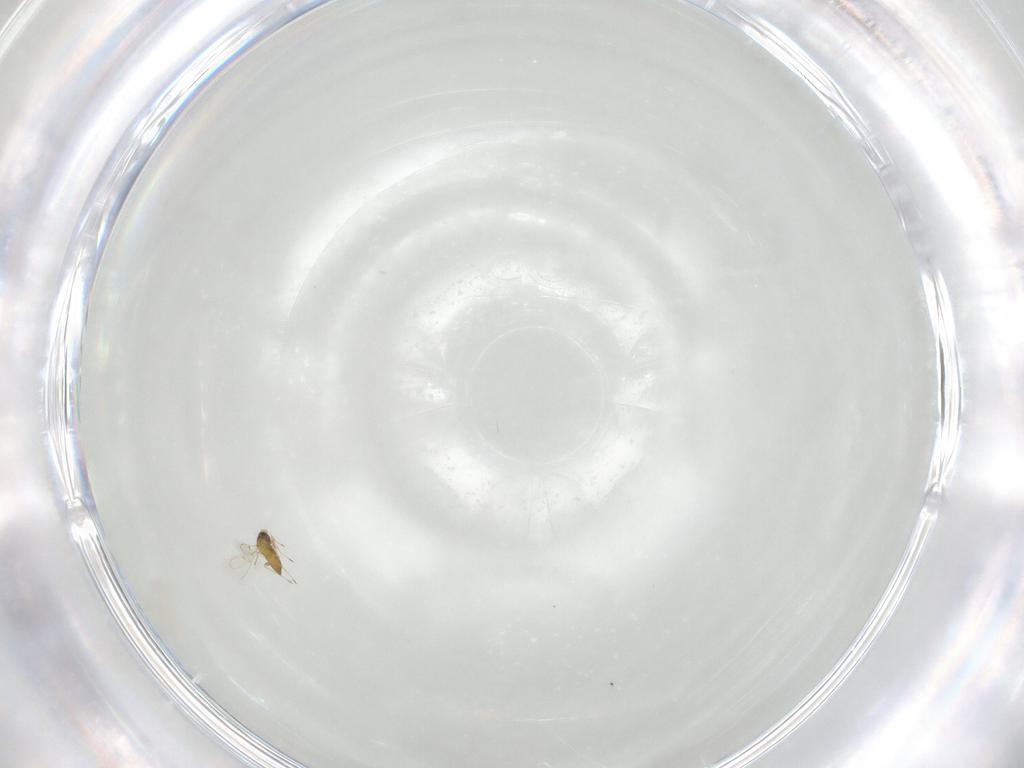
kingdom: Animalia
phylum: Arthropoda
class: Insecta
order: Hymenoptera
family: Trichogrammatidae
